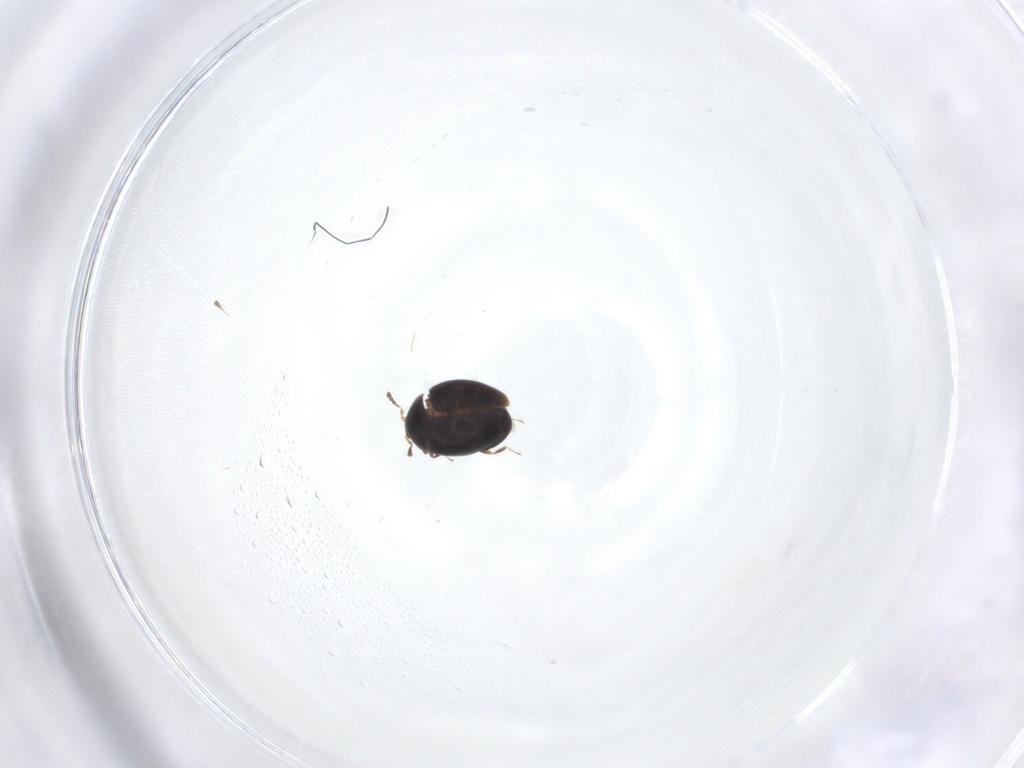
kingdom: Animalia
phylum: Arthropoda
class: Insecta
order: Coleoptera
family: Corylophidae
